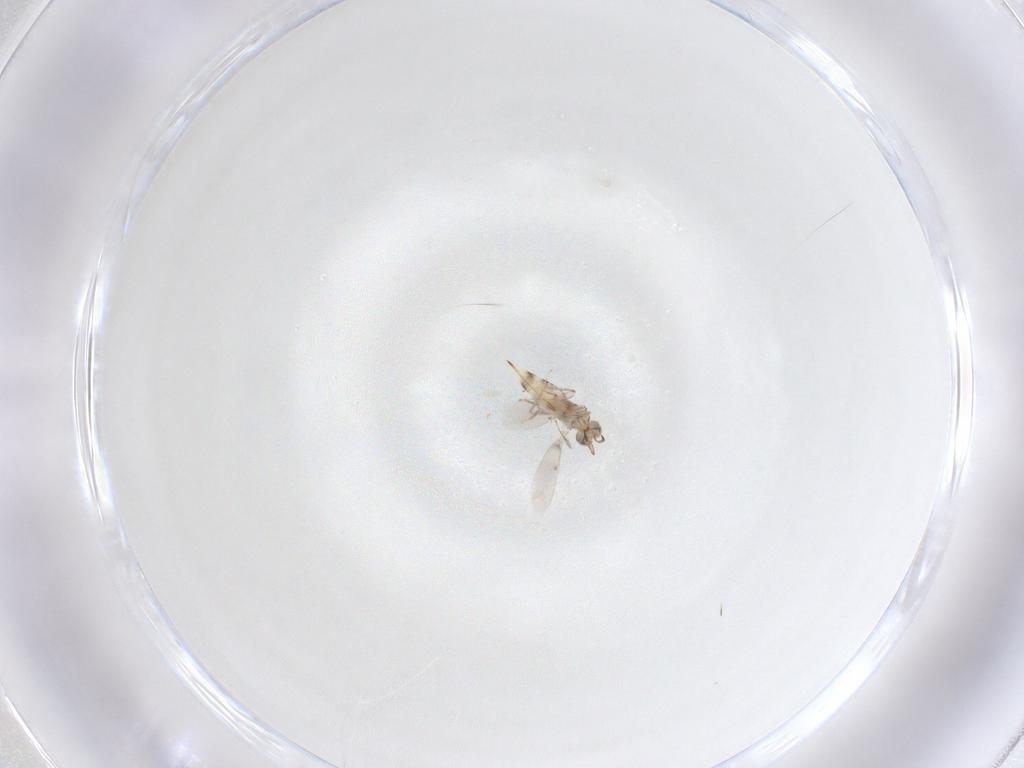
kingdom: Animalia
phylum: Arthropoda
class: Insecta
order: Hymenoptera
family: Aphelinidae
